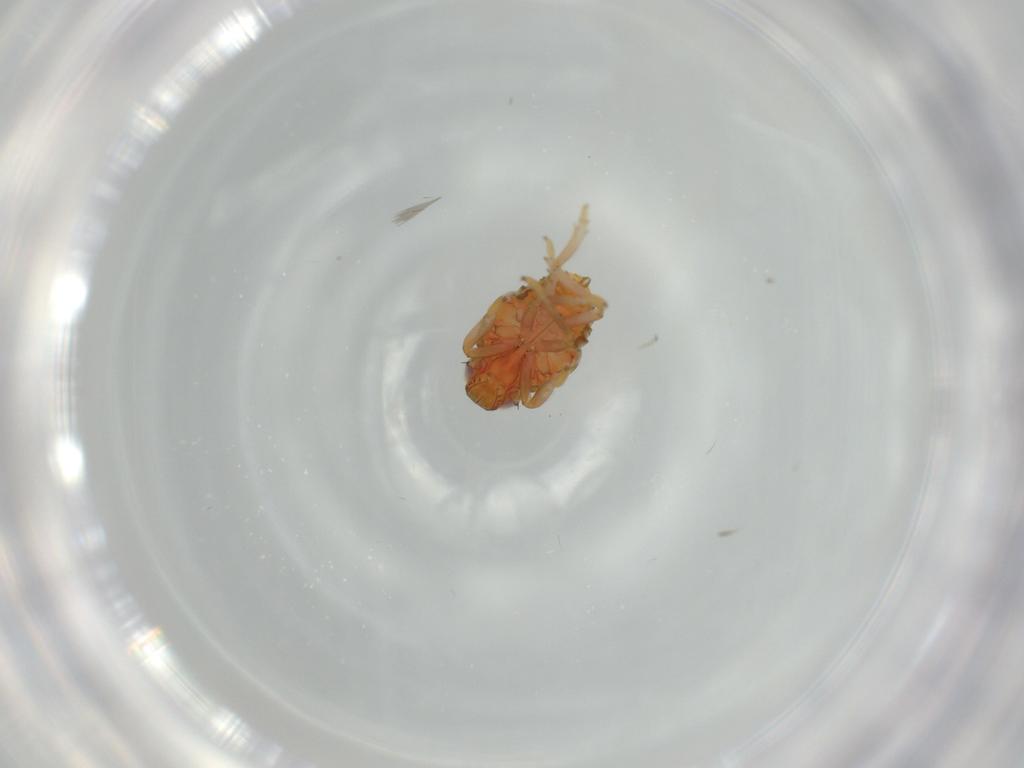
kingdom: Animalia
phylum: Arthropoda
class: Insecta
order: Hemiptera
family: Issidae
